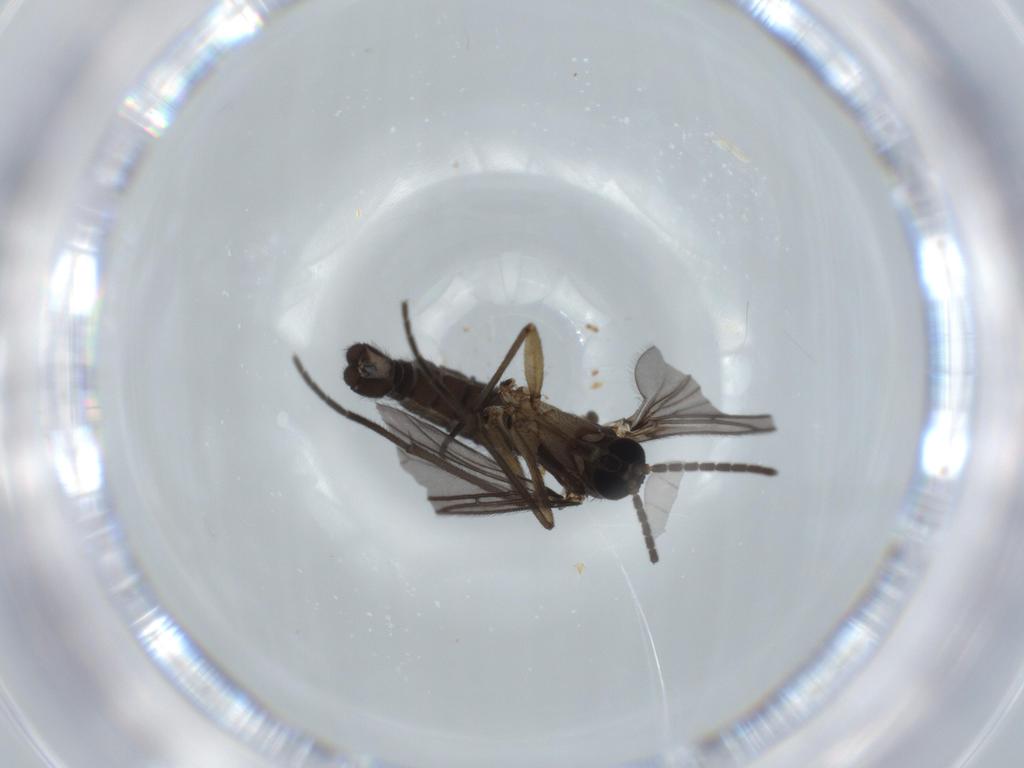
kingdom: Animalia
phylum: Arthropoda
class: Insecta
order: Diptera
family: Sciaridae
